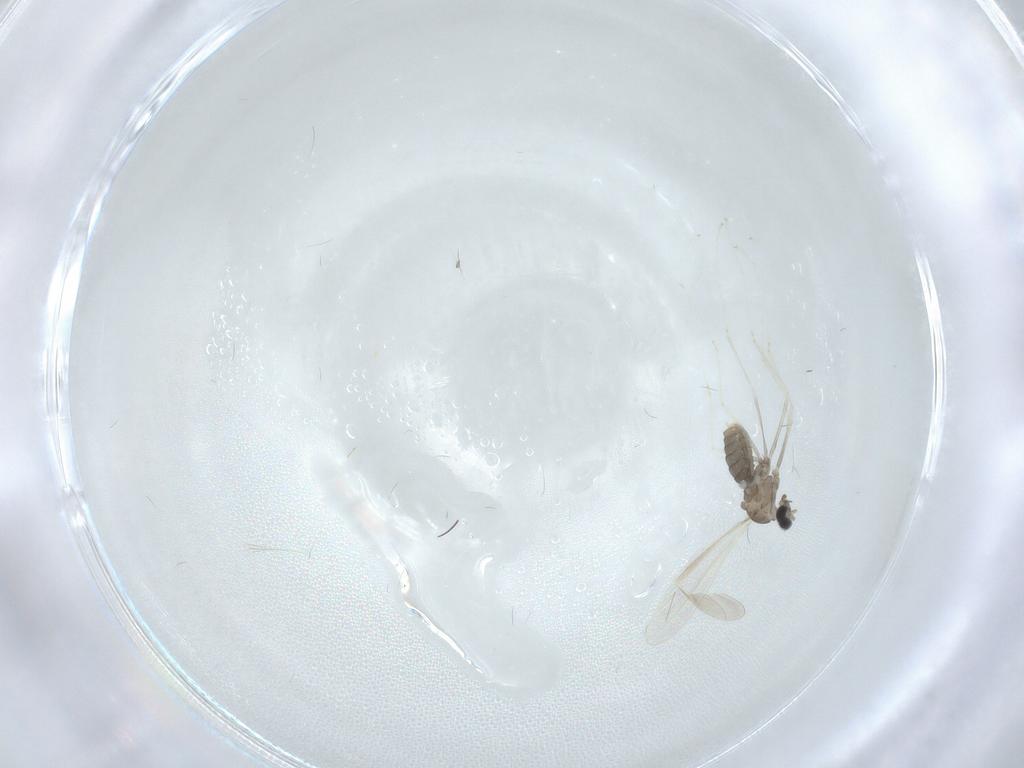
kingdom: Animalia
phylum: Arthropoda
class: Insecta
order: Diptera
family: Cecidomyiidae
